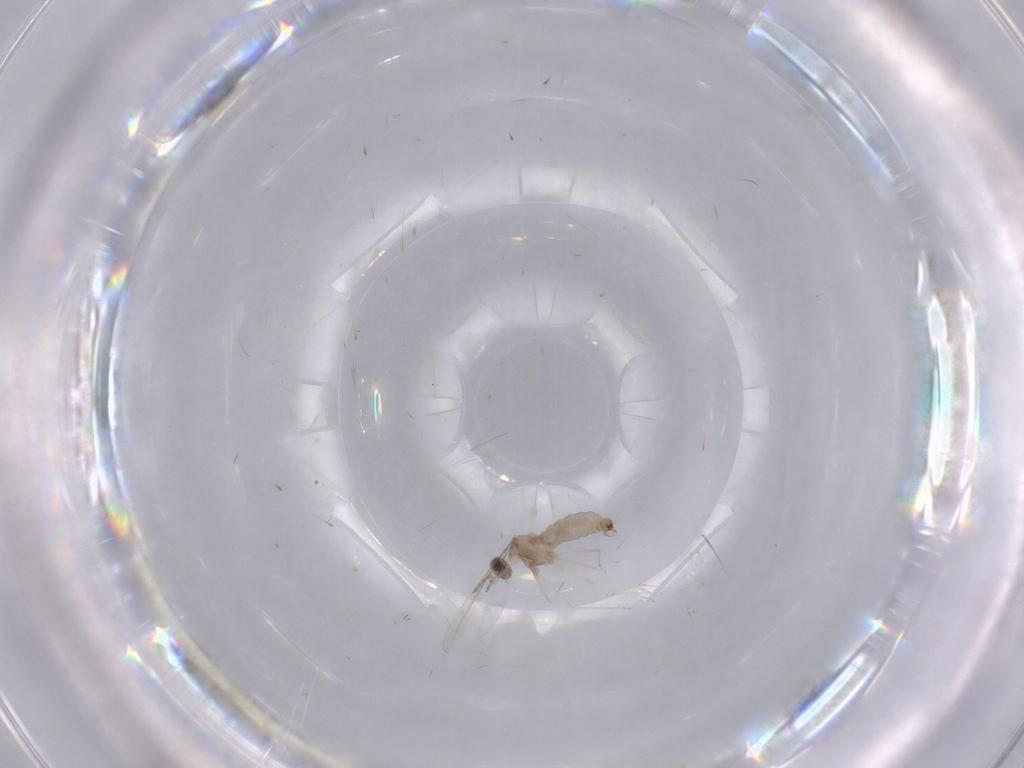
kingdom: Animalia
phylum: Arthropoda
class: Insecta
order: Diptera
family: Cecidomyiidae
